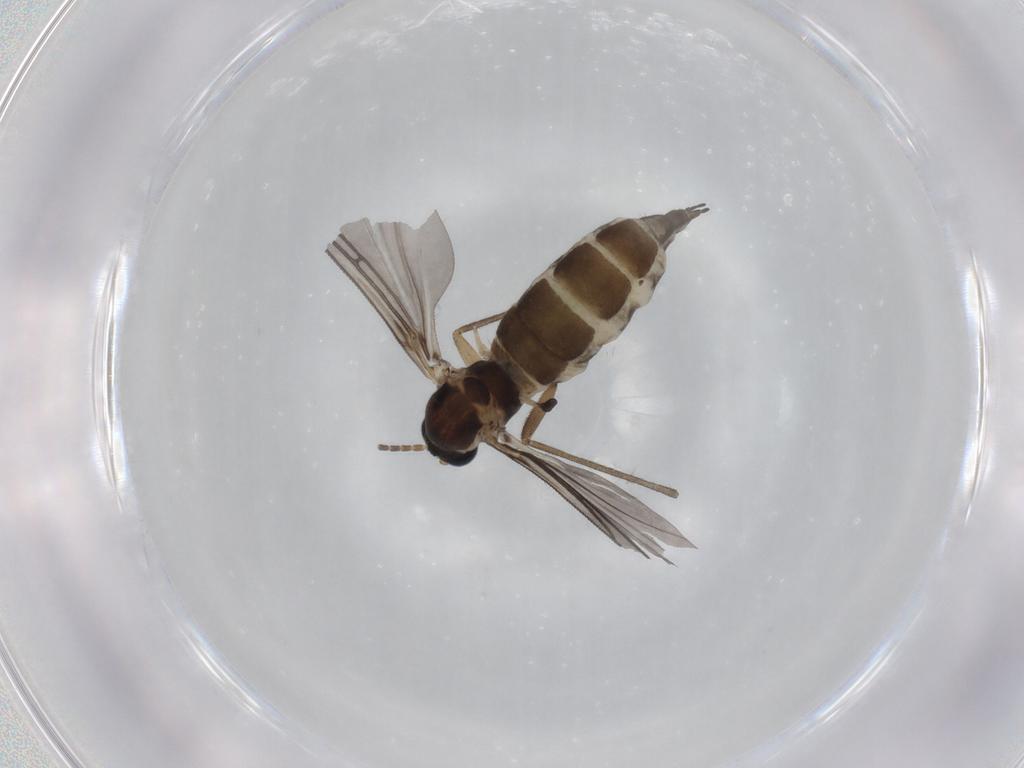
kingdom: Animalia
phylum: Arthropoda
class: Insecta
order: Diptera
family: Sciaridae
